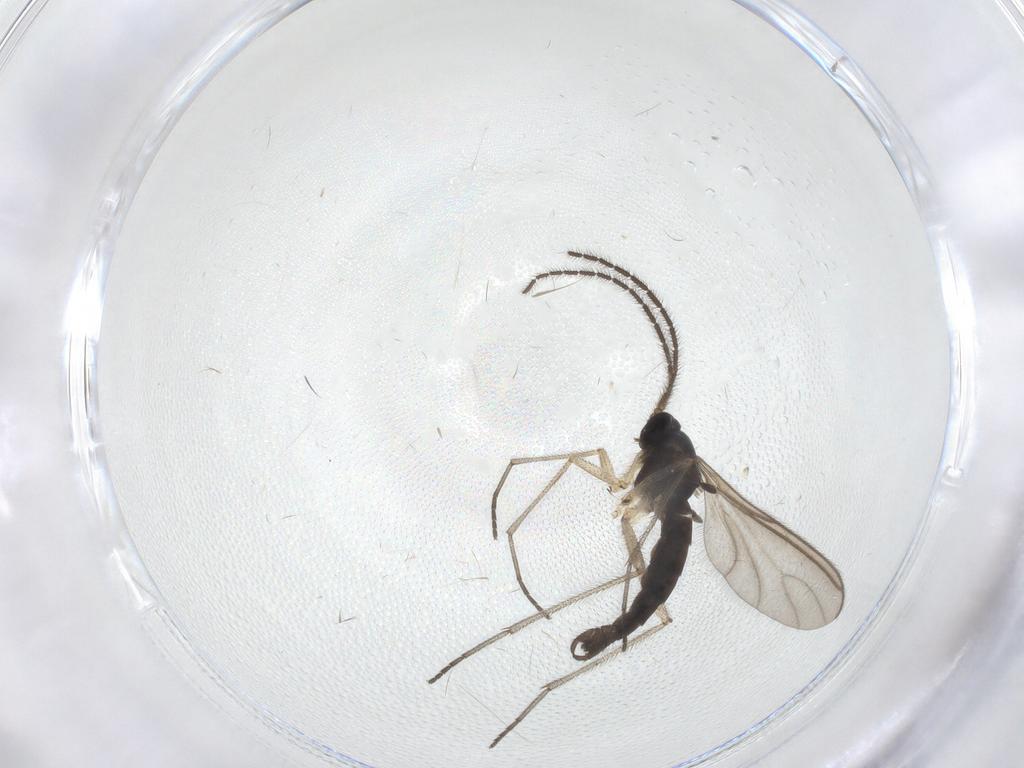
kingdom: Animalia
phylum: Arthropoda
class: Insecta
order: Diptera
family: Sciaridae
